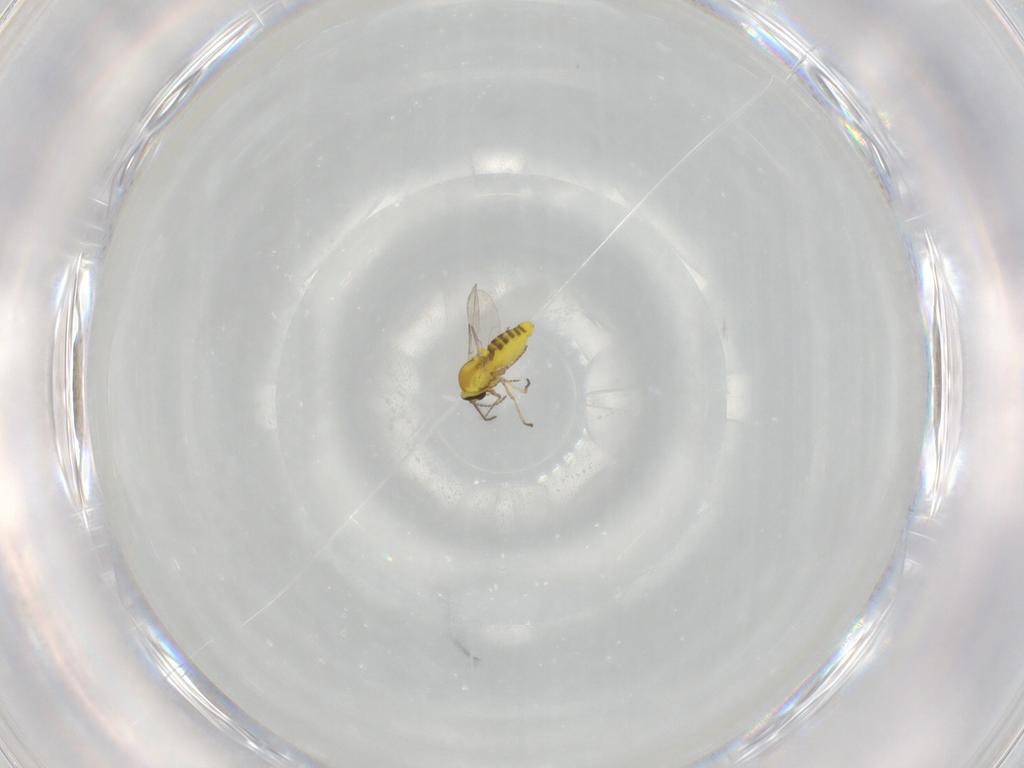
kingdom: Animalia
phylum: Arthropoda
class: Insecta
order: Diptera
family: Ceratopogonidae
